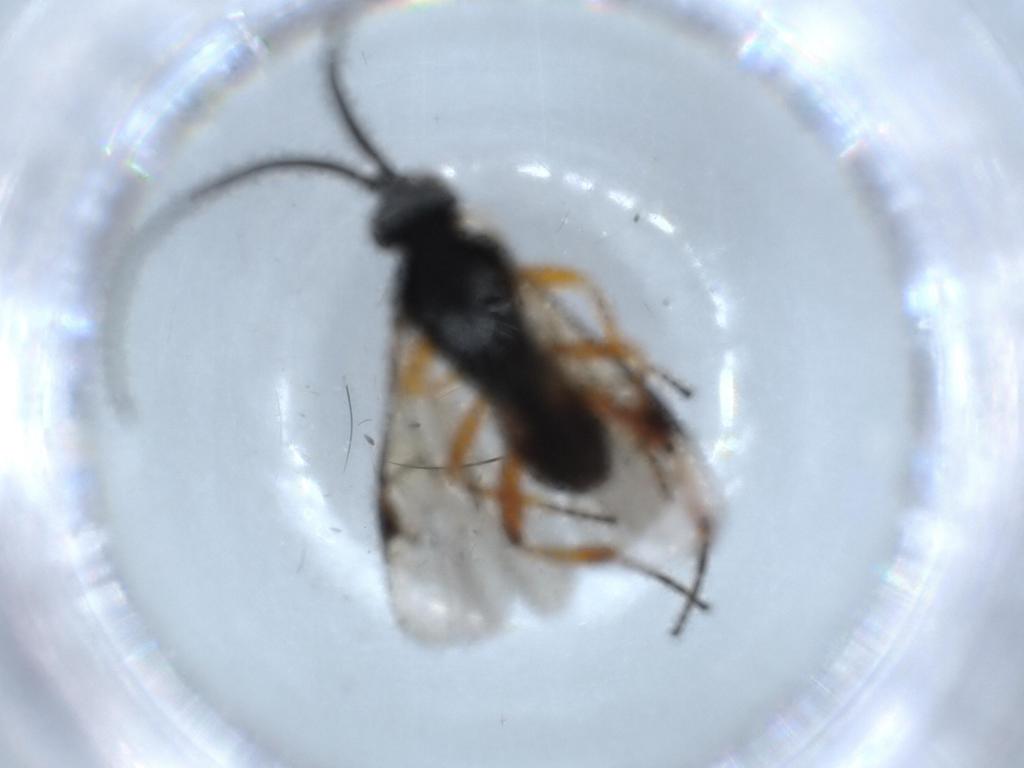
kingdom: Animalia
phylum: Arthropoda
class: Insecta
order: Hymenoptera
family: Braconidae
